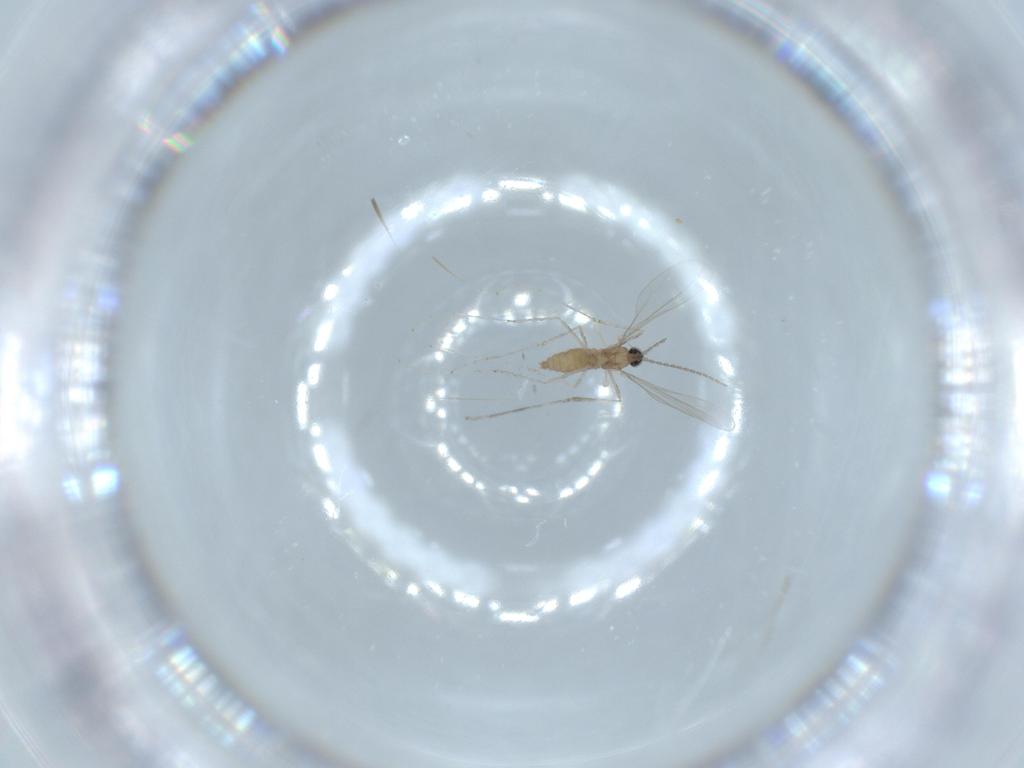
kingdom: Animalia
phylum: Arthropoda
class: Insecta
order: Diptera
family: Cecidomyiidae
